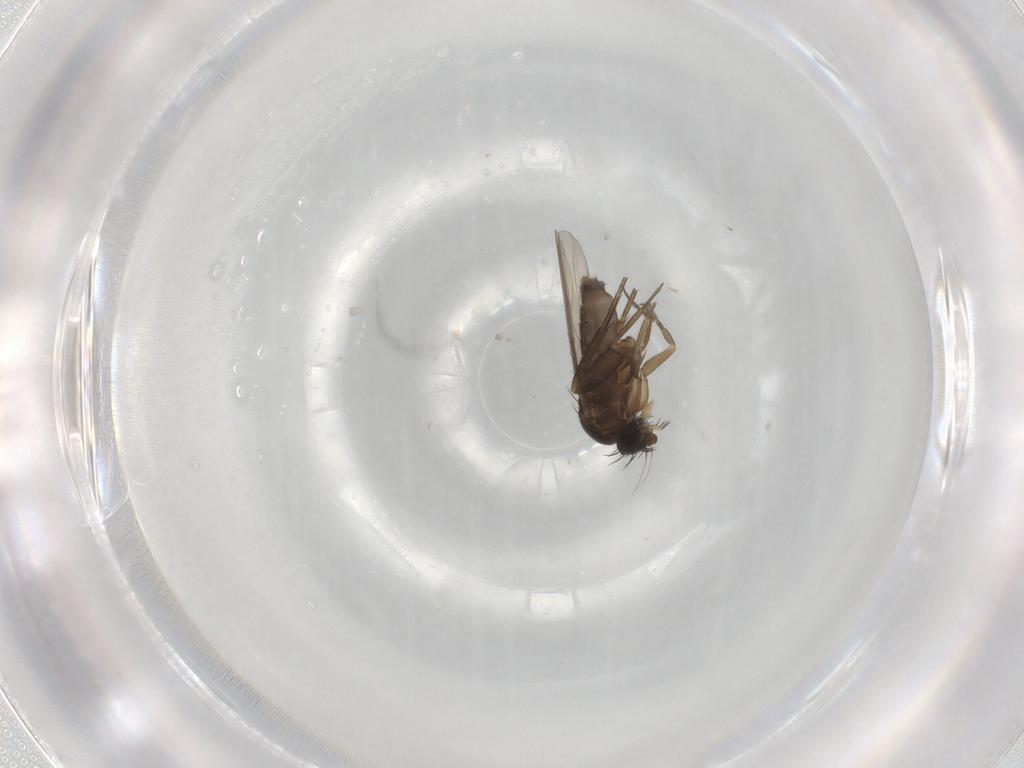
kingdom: Animalia
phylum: Arthropoda
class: Insecta
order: Diptera
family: Phoridae
